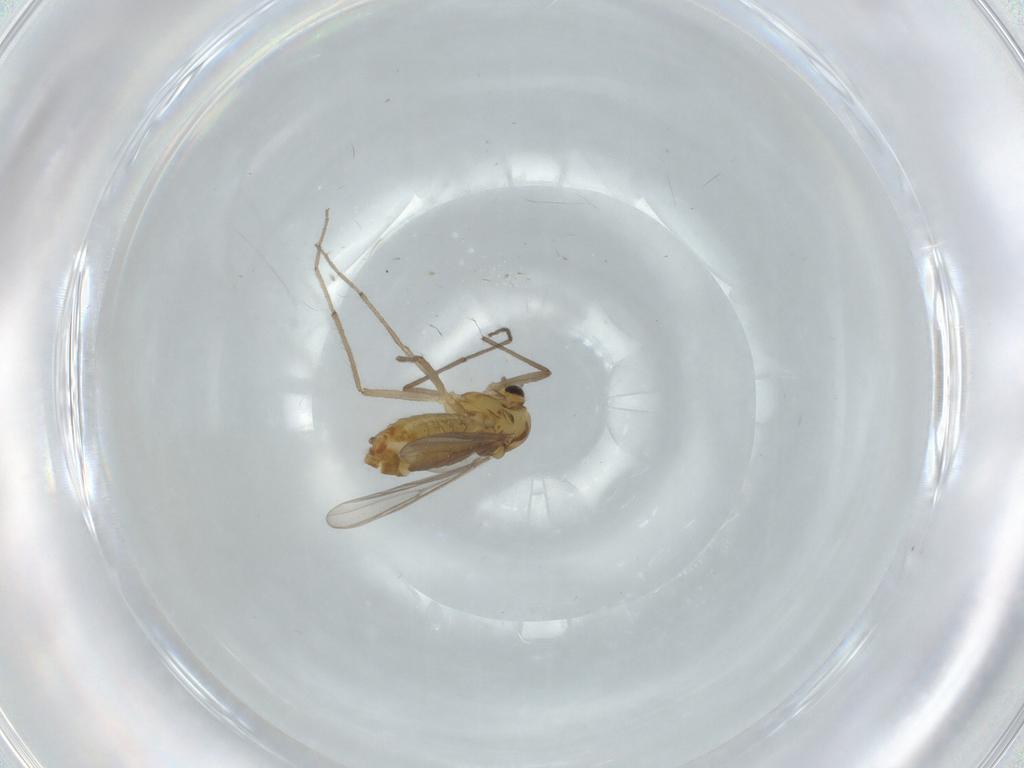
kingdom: Animalia
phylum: Arthropoda
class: Insecta
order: Diptera
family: Chironomidae
